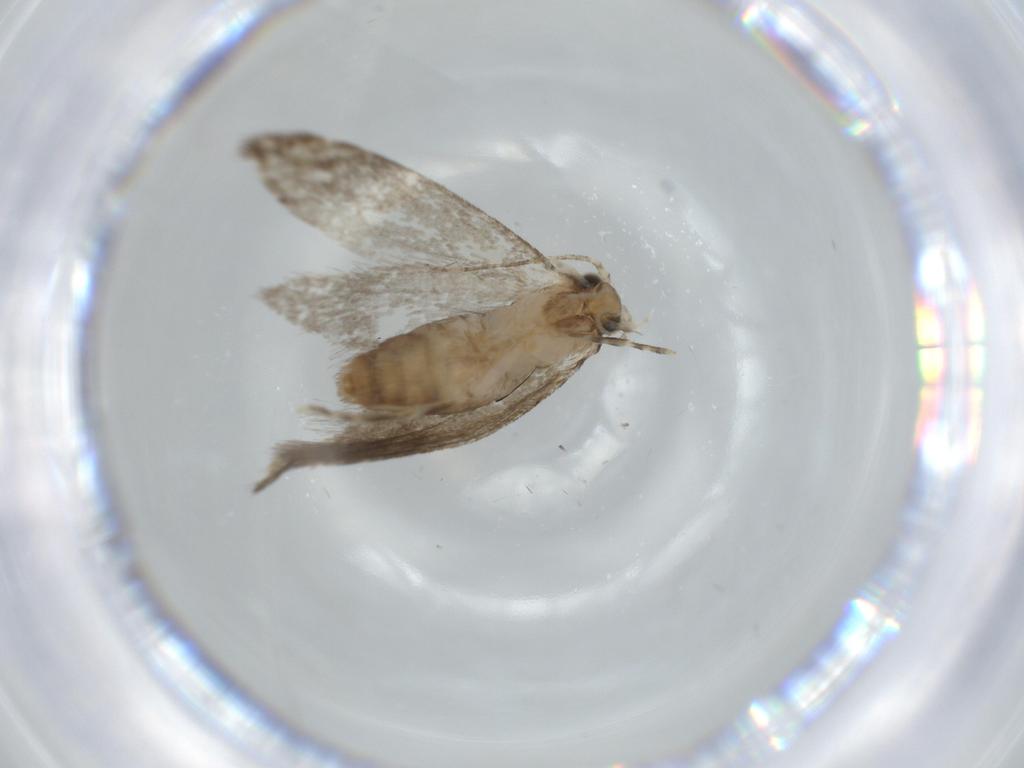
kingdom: Animalia
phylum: Arthropoda
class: Insecta
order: Lepidoptera
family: Tineidae
